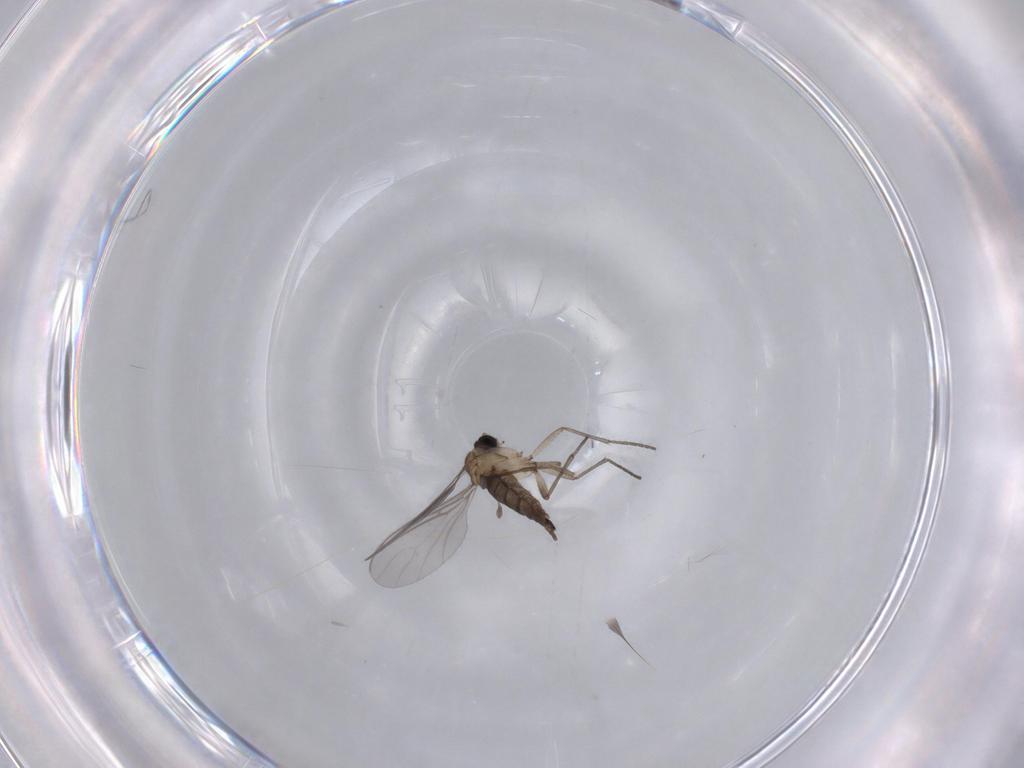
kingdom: Animalia
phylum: Arthropoda
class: Insecta
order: Diptera
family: Sciaridae
